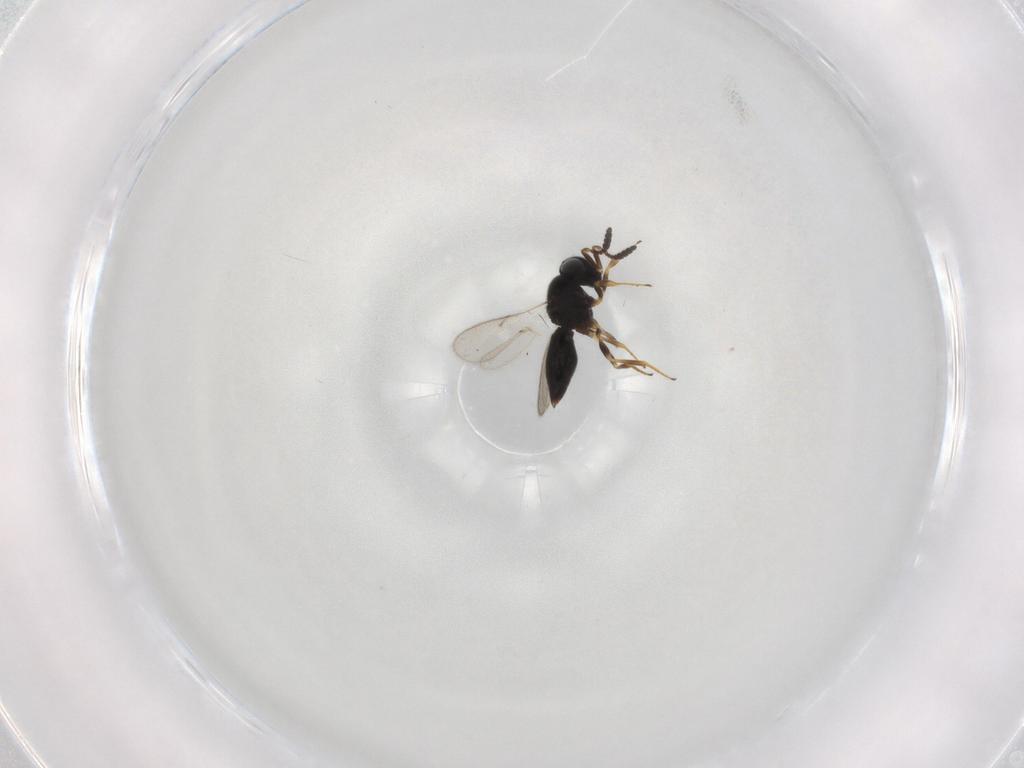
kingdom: Animalia
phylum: Arthropoda
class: Insecta
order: Hymenoptera
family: Scelionidae
